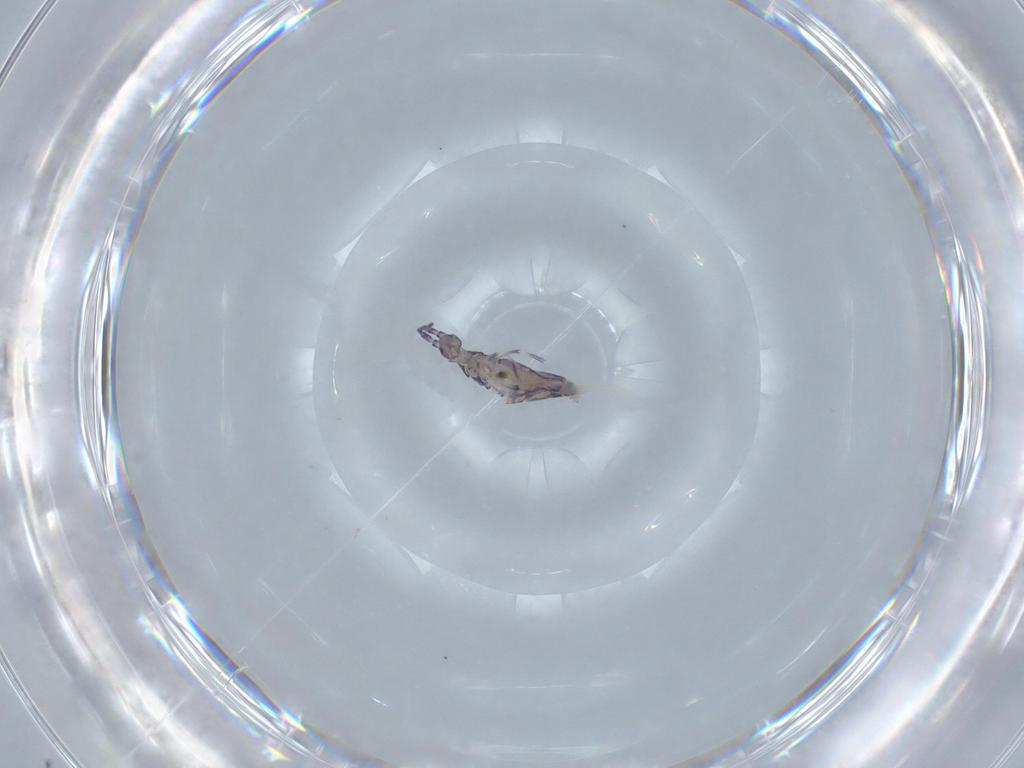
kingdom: Animalia
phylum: Arthropoda
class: Collembola
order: Entomobryomorpha
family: Entomobryidae
